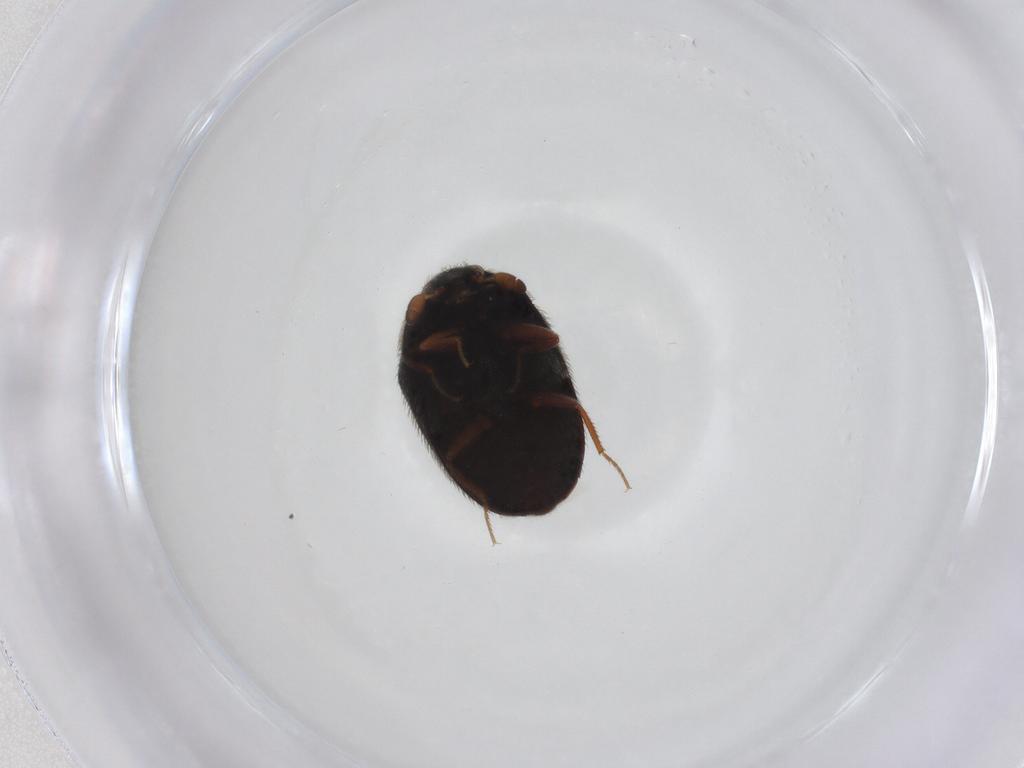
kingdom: Animalia
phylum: Arthropoda
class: Insecta
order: Coleoptera
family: Dermestidae
